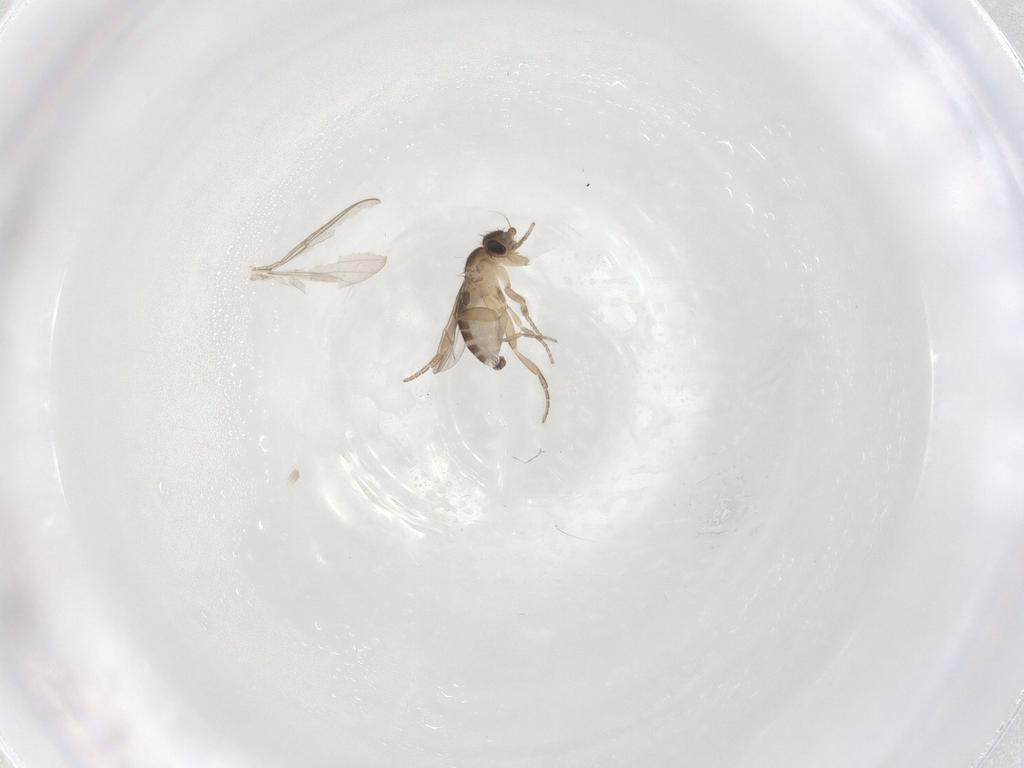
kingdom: Animalia
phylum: Arthropoda
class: Insecta
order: Diptera
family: Phoridae
